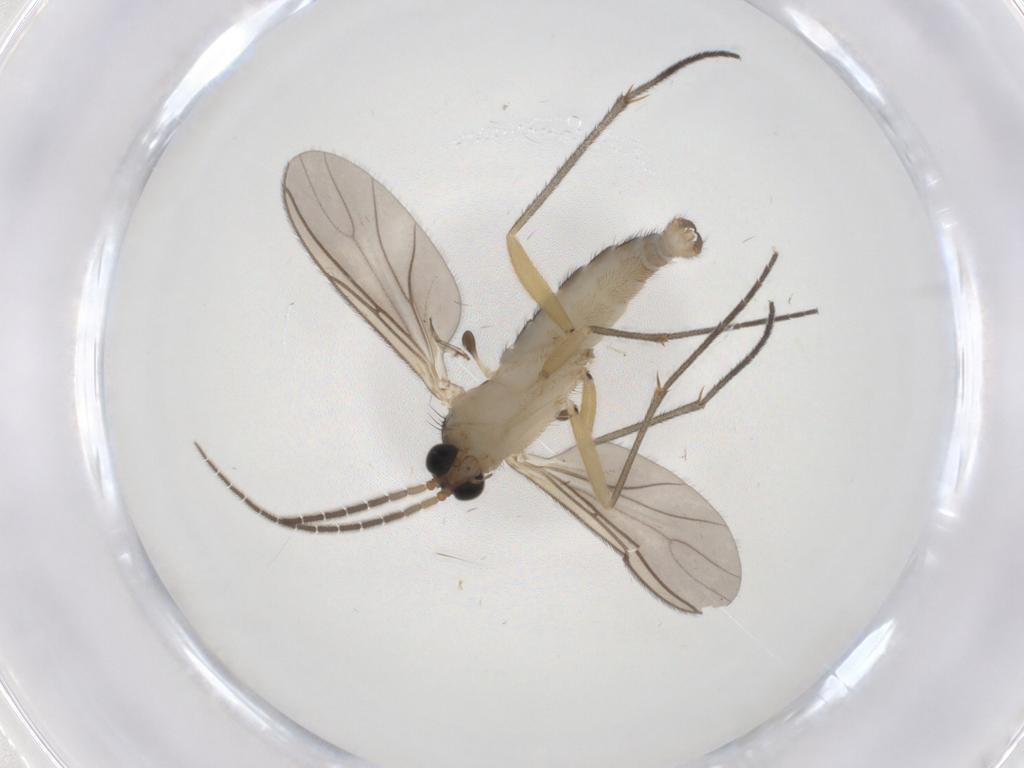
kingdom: Animalia
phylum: Arthropoda
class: Insecta
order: Diptera
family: Sciaridae
